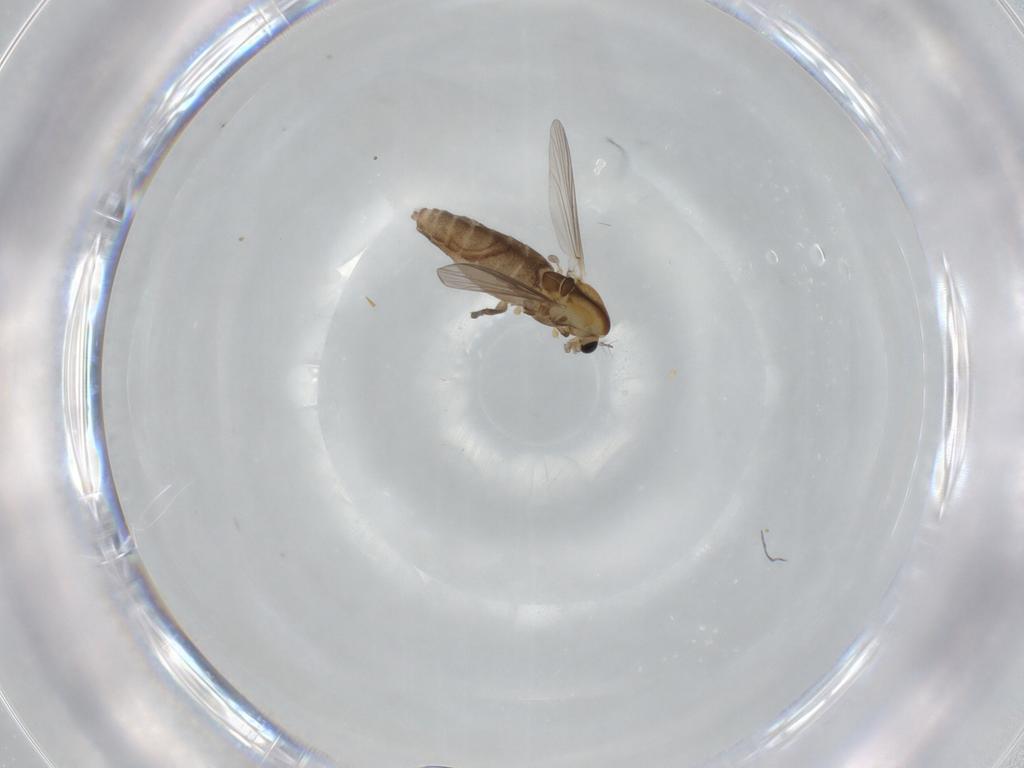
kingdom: Animalia
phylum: Arthropoda
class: Insecta
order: Diptera
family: Chironomidae
